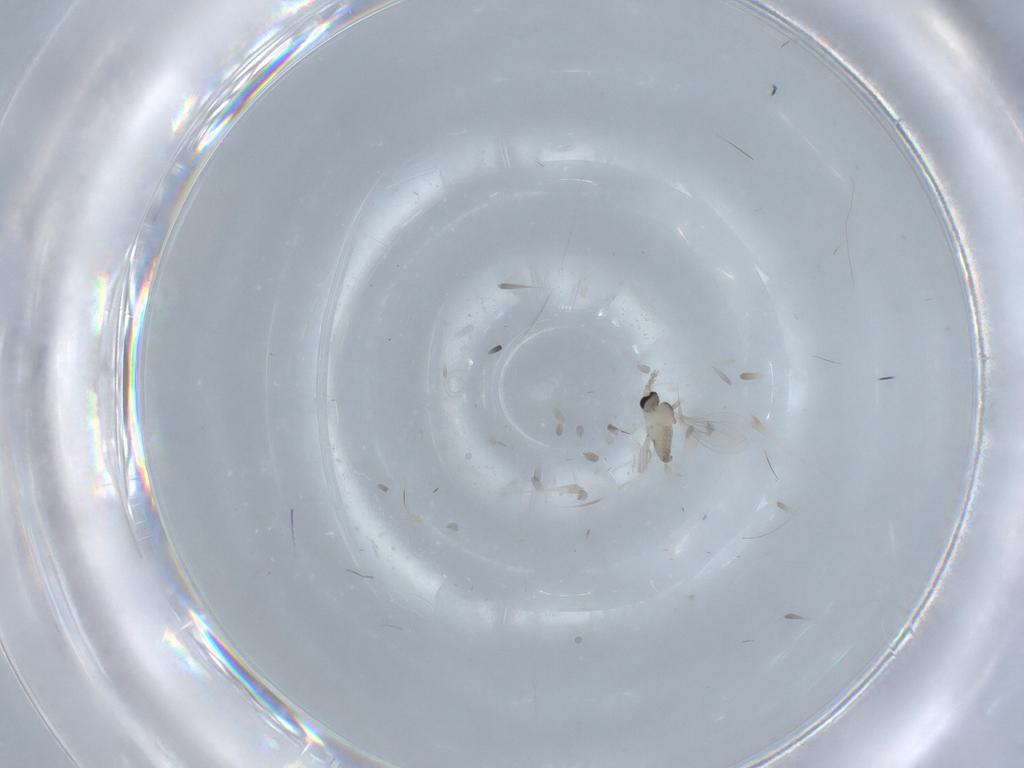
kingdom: Animalia
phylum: Arthropoda
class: Insecta
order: Diptera
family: Cecidomyiidae
